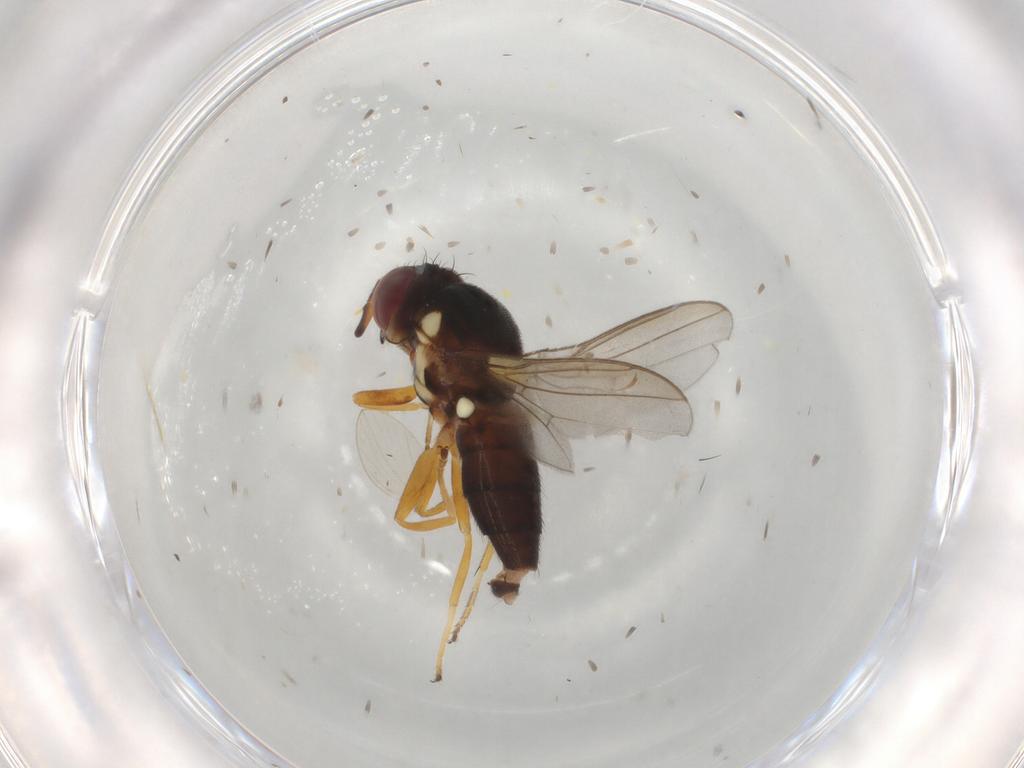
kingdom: Animalia
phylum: Arthropoda
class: Insecta
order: Diptera
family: Chloropidae
